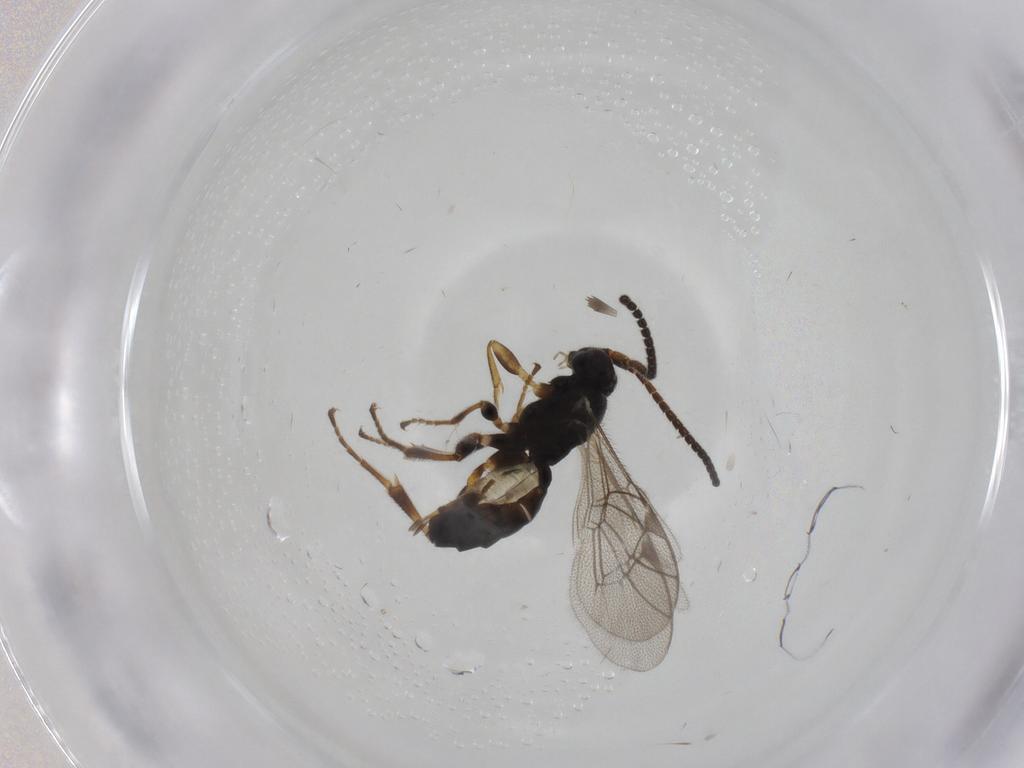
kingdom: Animalia
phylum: Arthropoda
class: Insecta
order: Hymenoptera
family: Ichneumonidae
